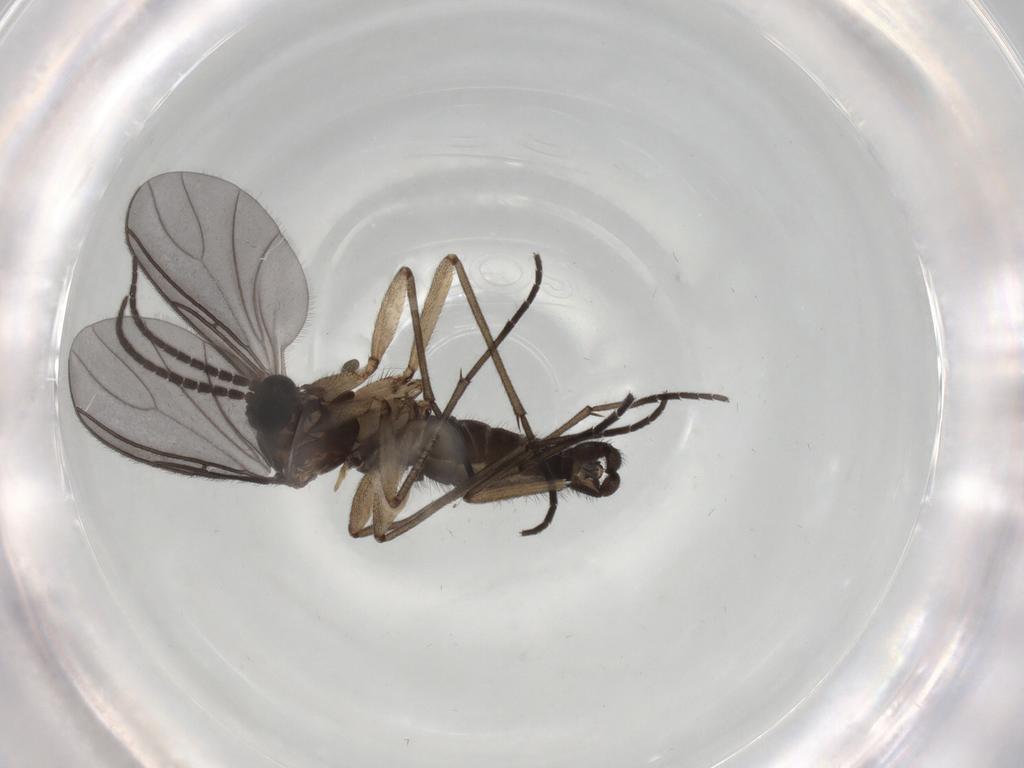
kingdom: Animalia
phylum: Arthropoda
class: Insecta
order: Diptera
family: Sciaridae
